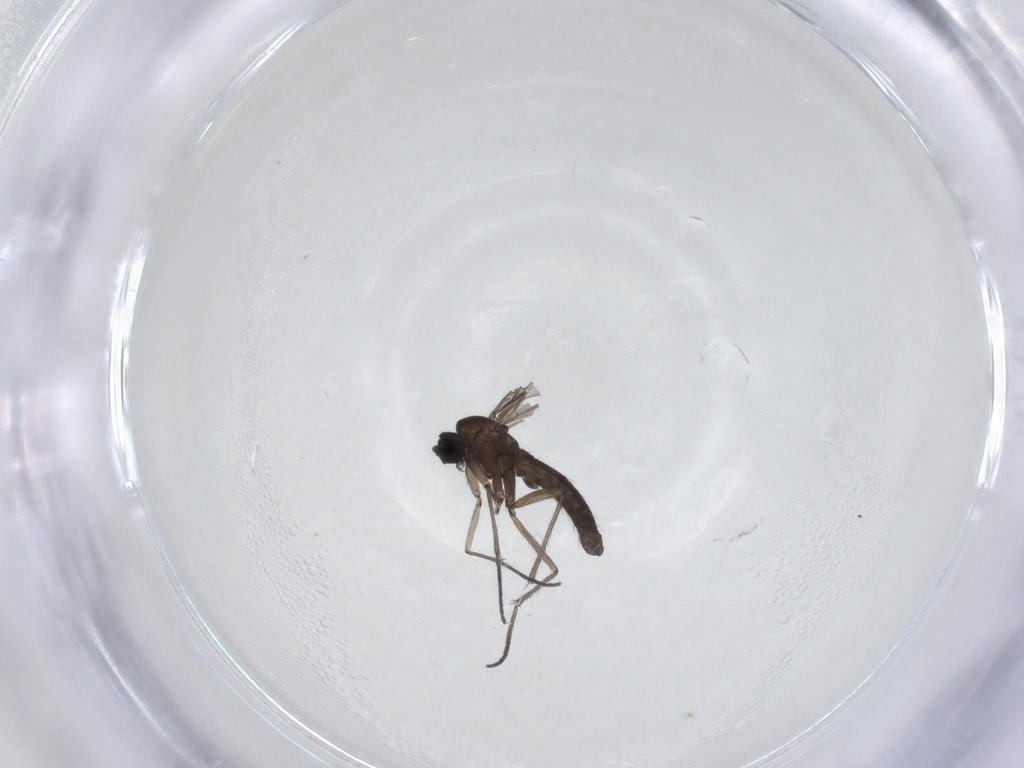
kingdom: Animalia
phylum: Arthropoda
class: Insecta
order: Diptera
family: Sciaridae
